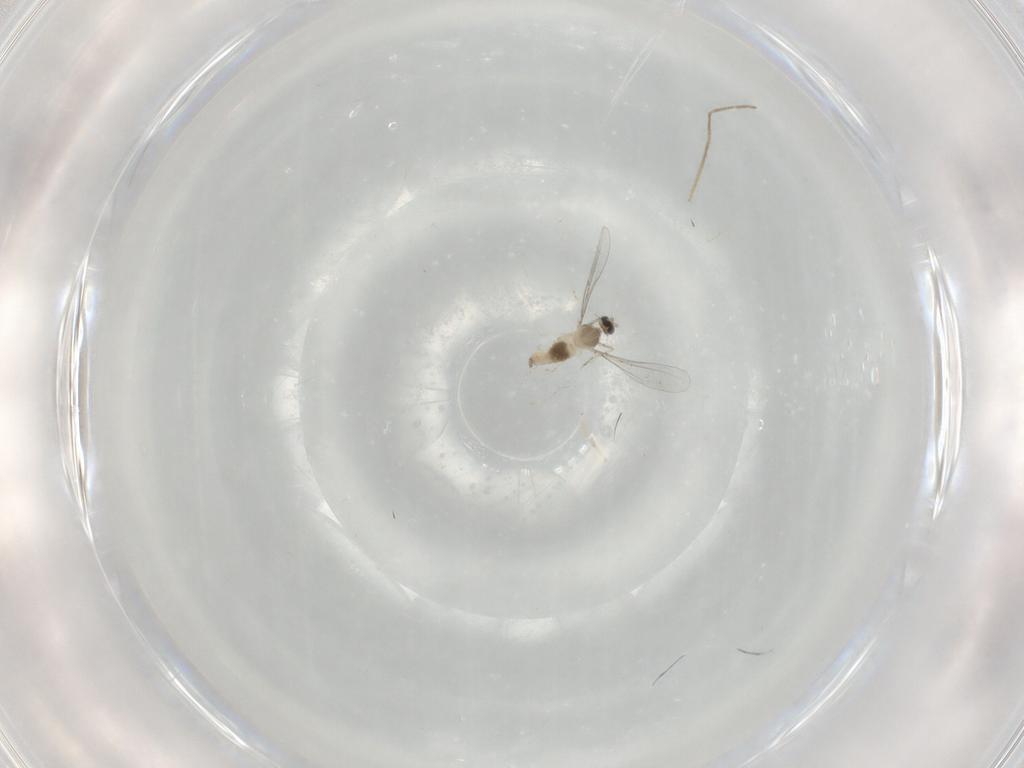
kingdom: Animalia
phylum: Arthropoda
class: Insecta
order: Diptera
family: Cecidomyiidae
